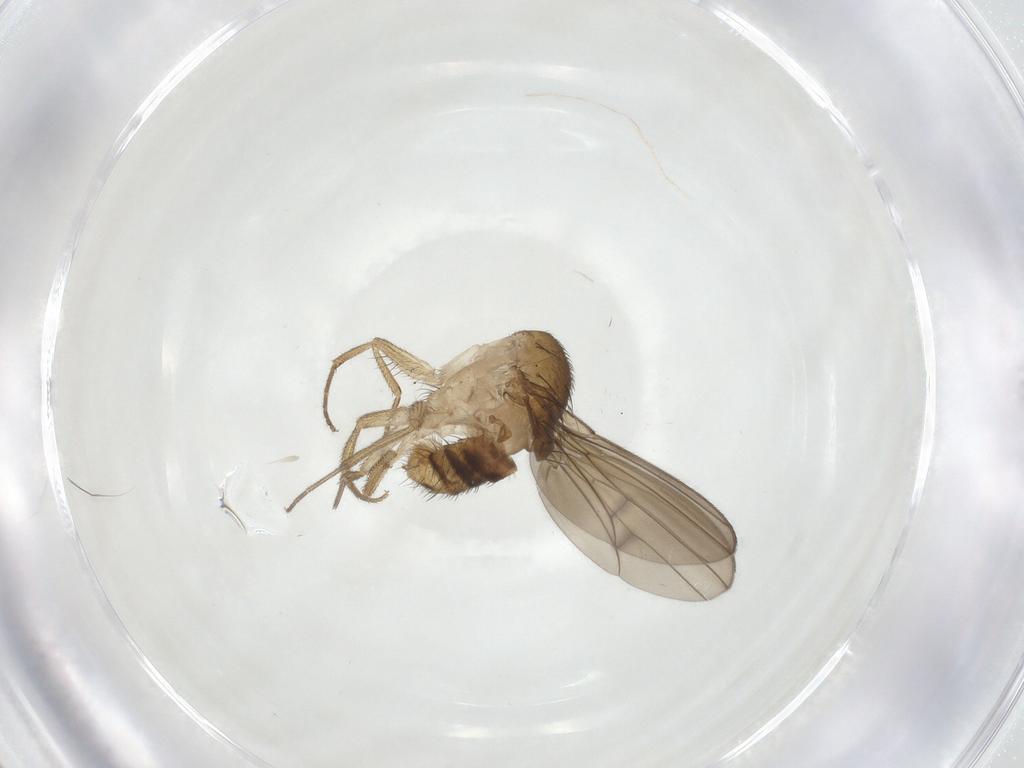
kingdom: Animalia
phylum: Arthropoda
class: Insecta
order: Diptera
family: Drosophilidae
